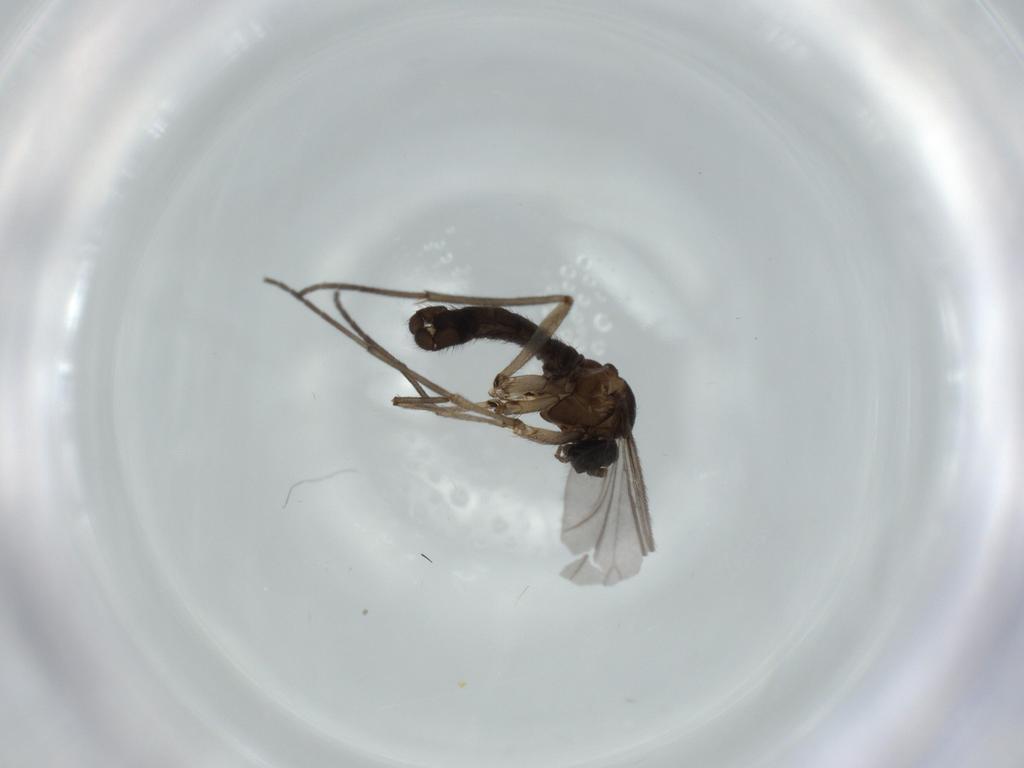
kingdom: Animalia
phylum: Arthropoda
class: Insecta
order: Diptera
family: Sciaridae
